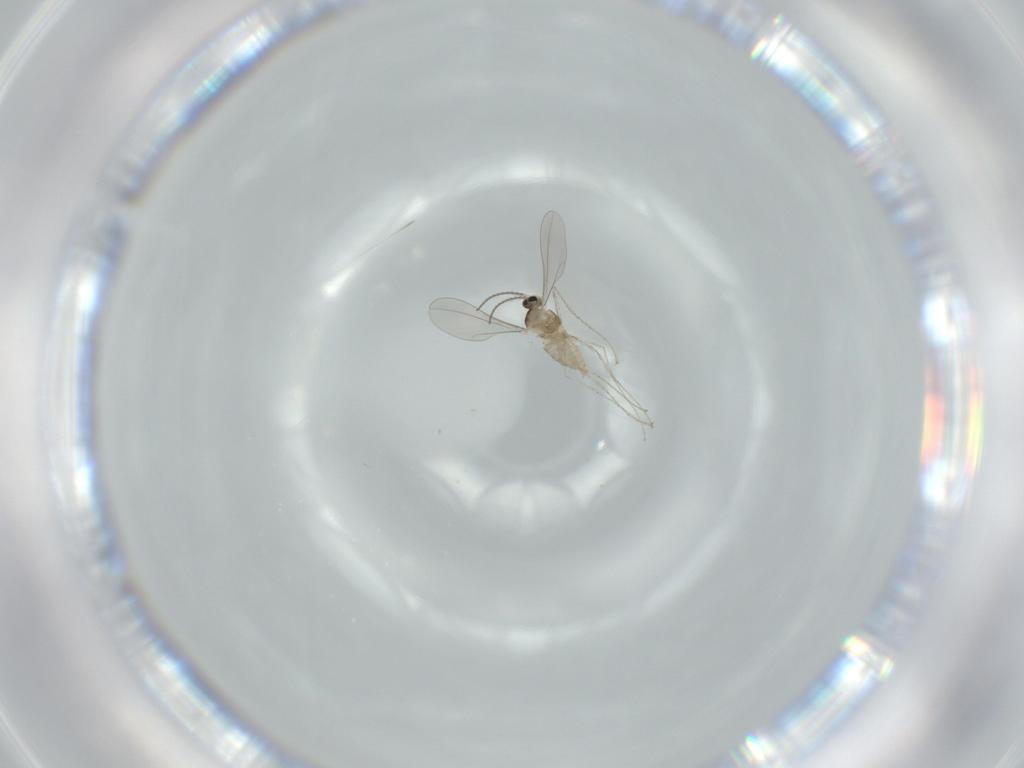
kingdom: Animalia
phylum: Arthropoda
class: Insecta
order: Diptera
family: Cecidomyiidae
